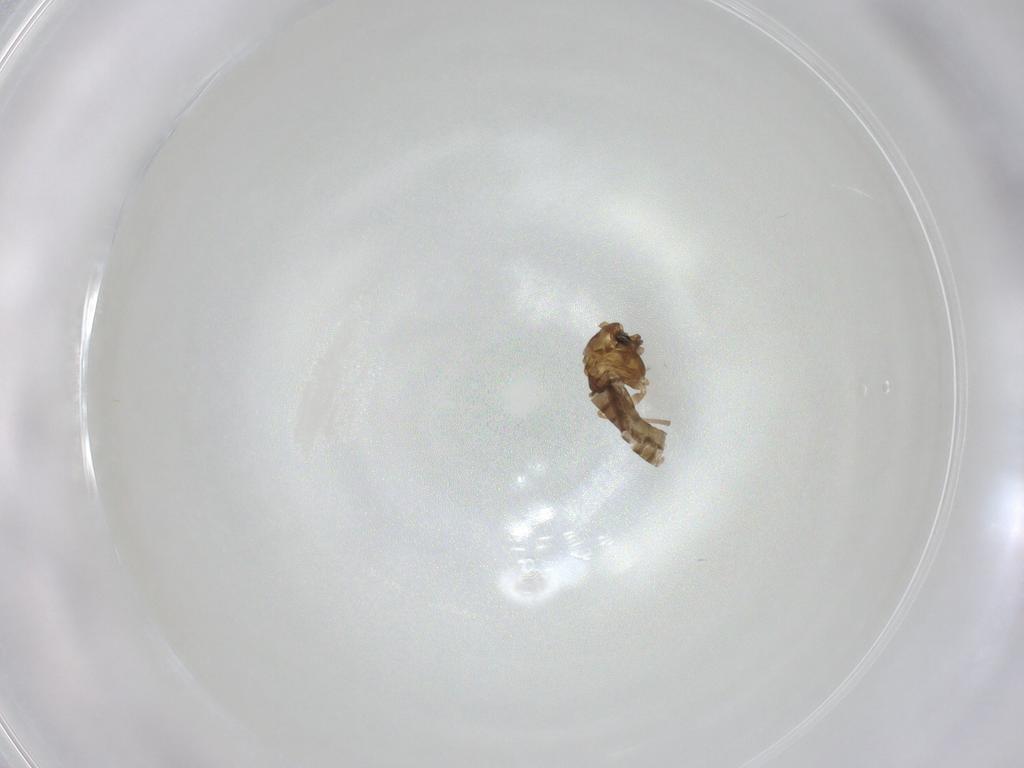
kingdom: Animalia
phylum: Arthropoda
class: Insecta
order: Diptera
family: Chironomidae
